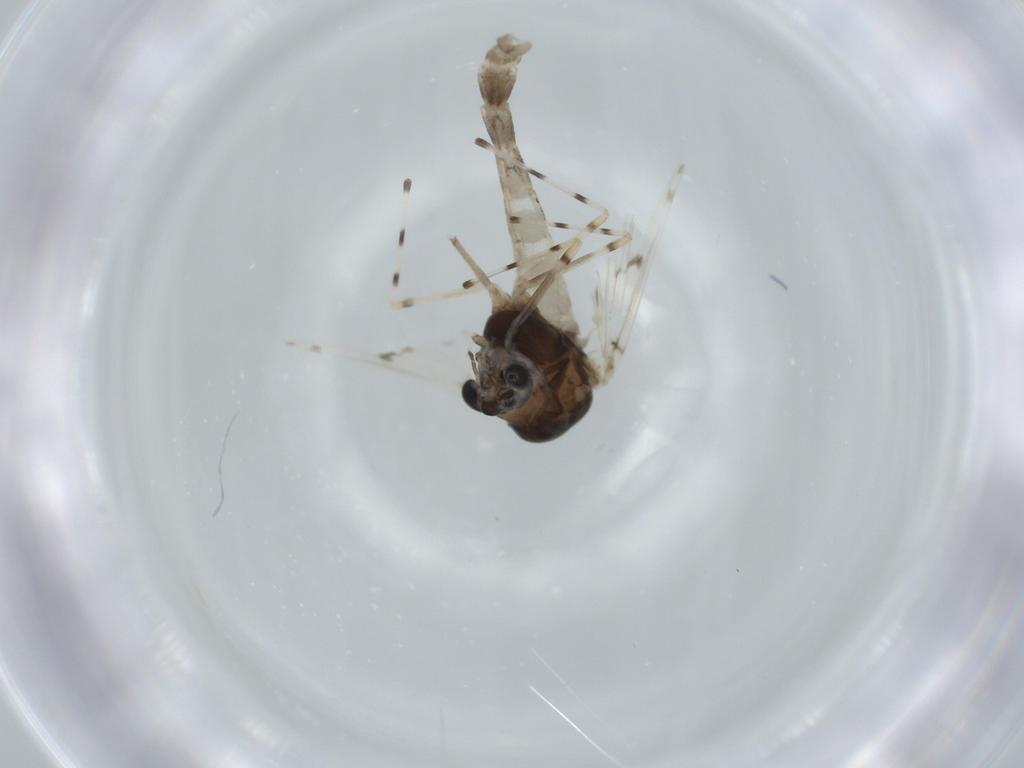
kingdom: Animalia
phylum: Arthropoda
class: Insecta
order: Diptera
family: Chironomidae
